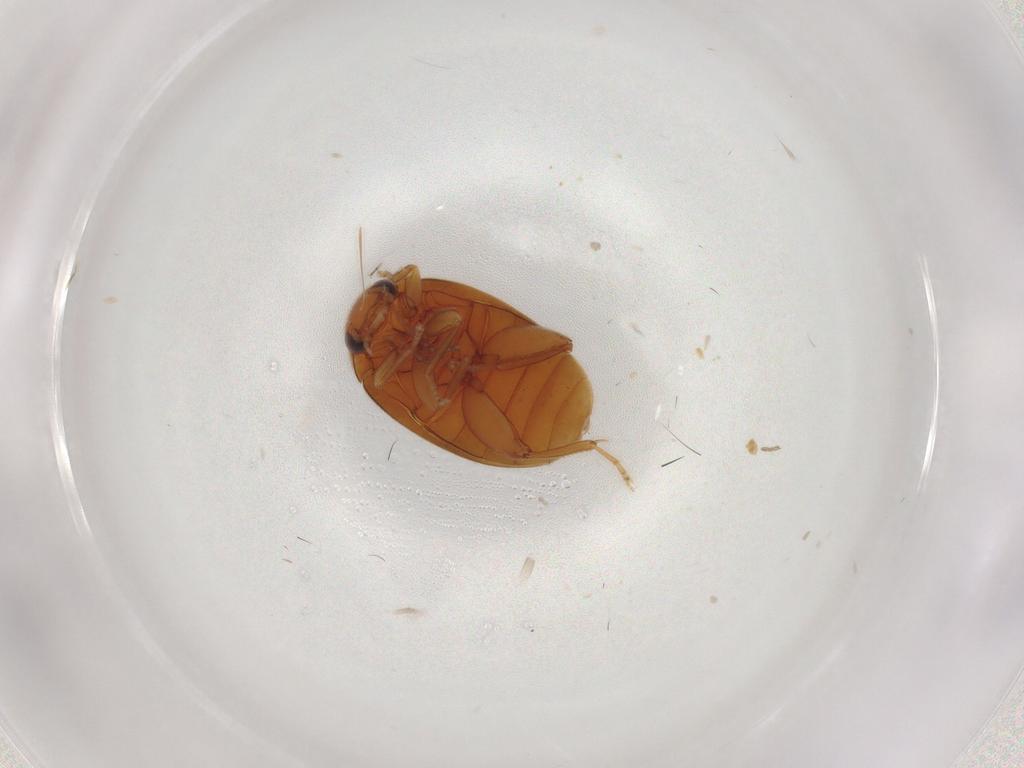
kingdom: Animalia
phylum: Arthropoda
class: Insecta
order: Coleoptera
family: Scirtidae
